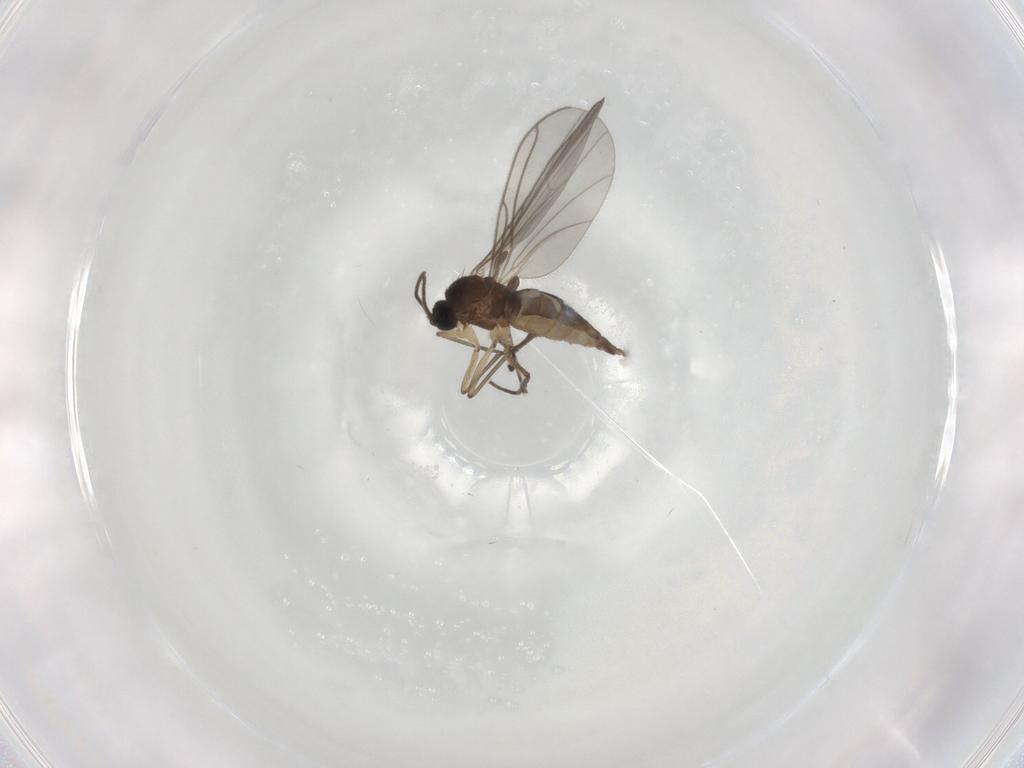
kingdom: Animalia
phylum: Arthropoda
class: Insecta
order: Diptera
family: Sciaridae
